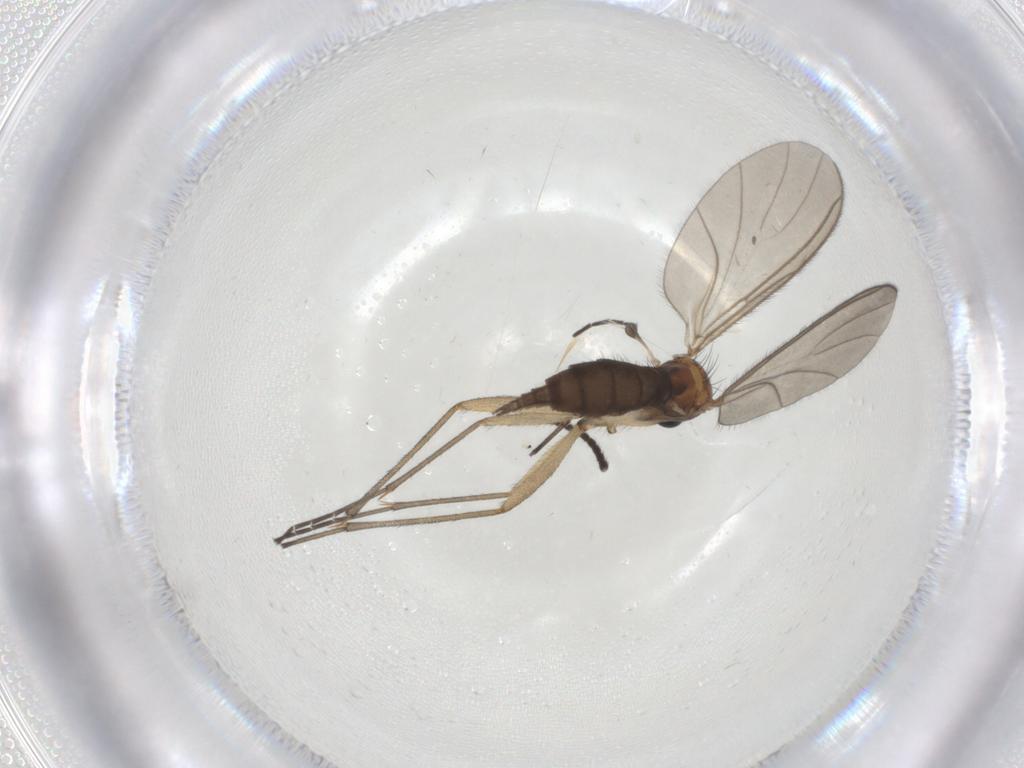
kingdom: Animalia
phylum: Arthropoda
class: Insecta
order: Diptera
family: Sciaridae
